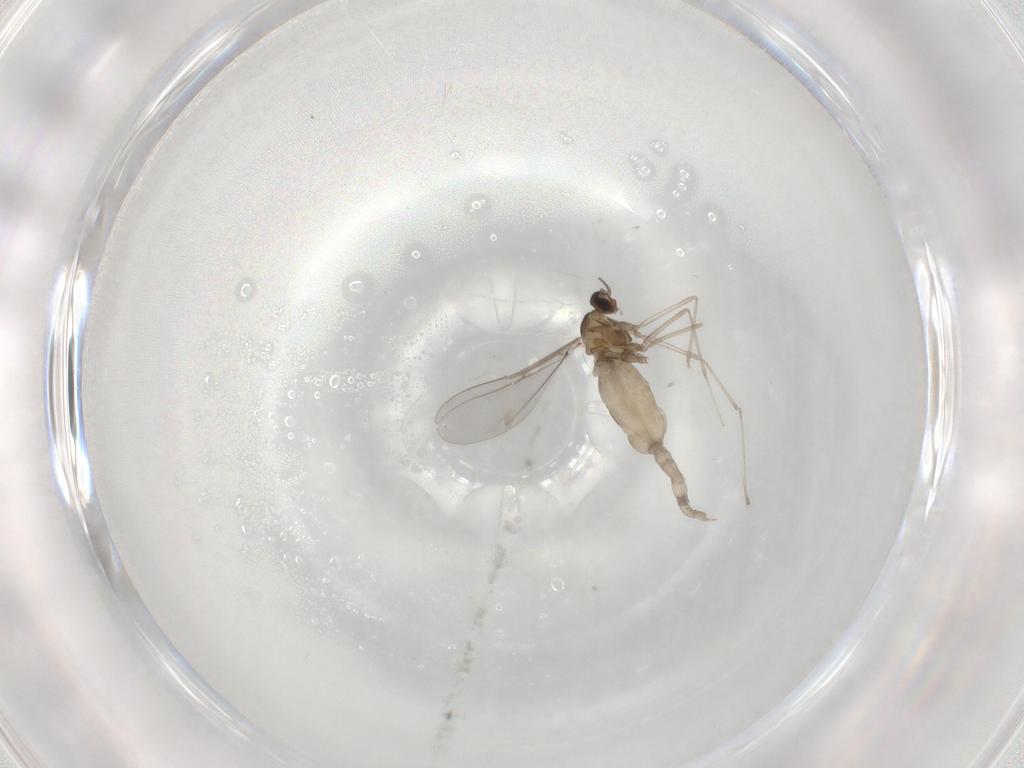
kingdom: Animalia
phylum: Arthropoda
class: Insecta
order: Diptera
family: Cecidomyiidae
